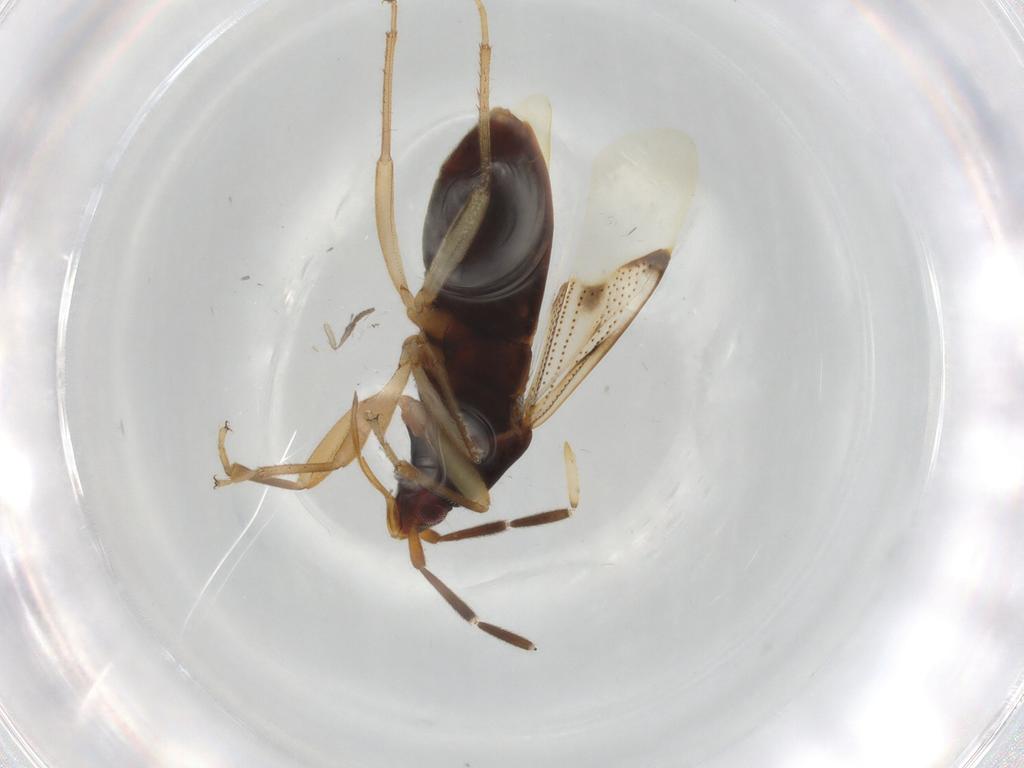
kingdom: Animalia
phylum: Arthropoda
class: Insecta
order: Hemiptera
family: Rhyparochromidae
